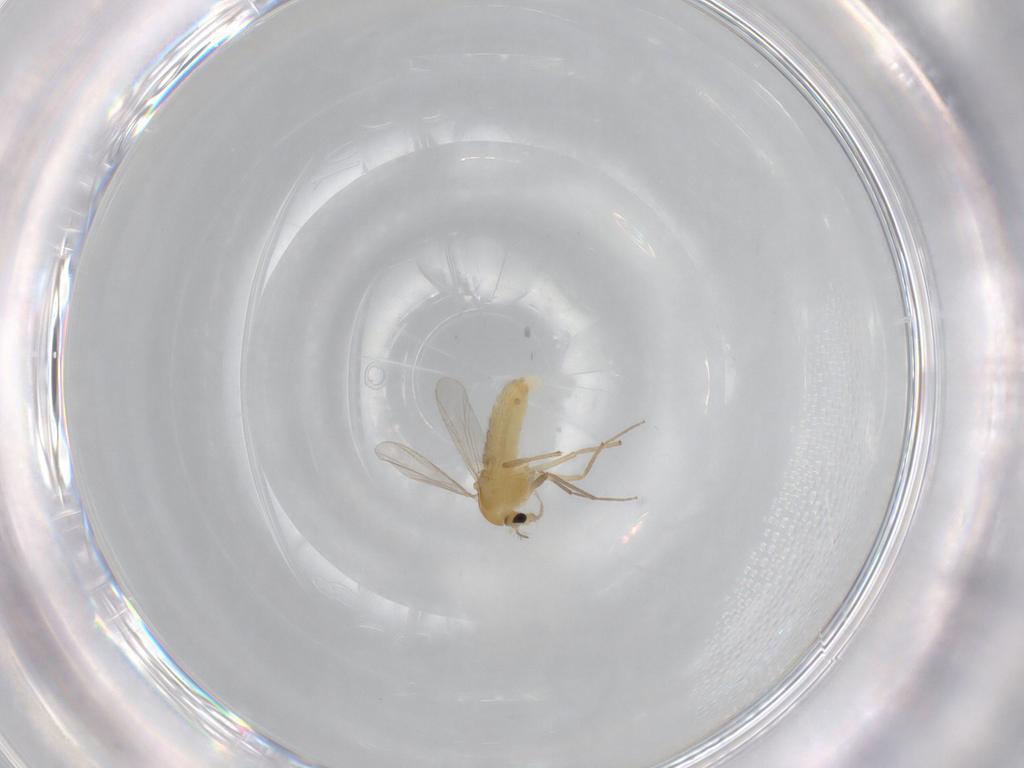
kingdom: Animalia
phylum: Arthropoda
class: Insecta
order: Diptera
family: Chironomidae
